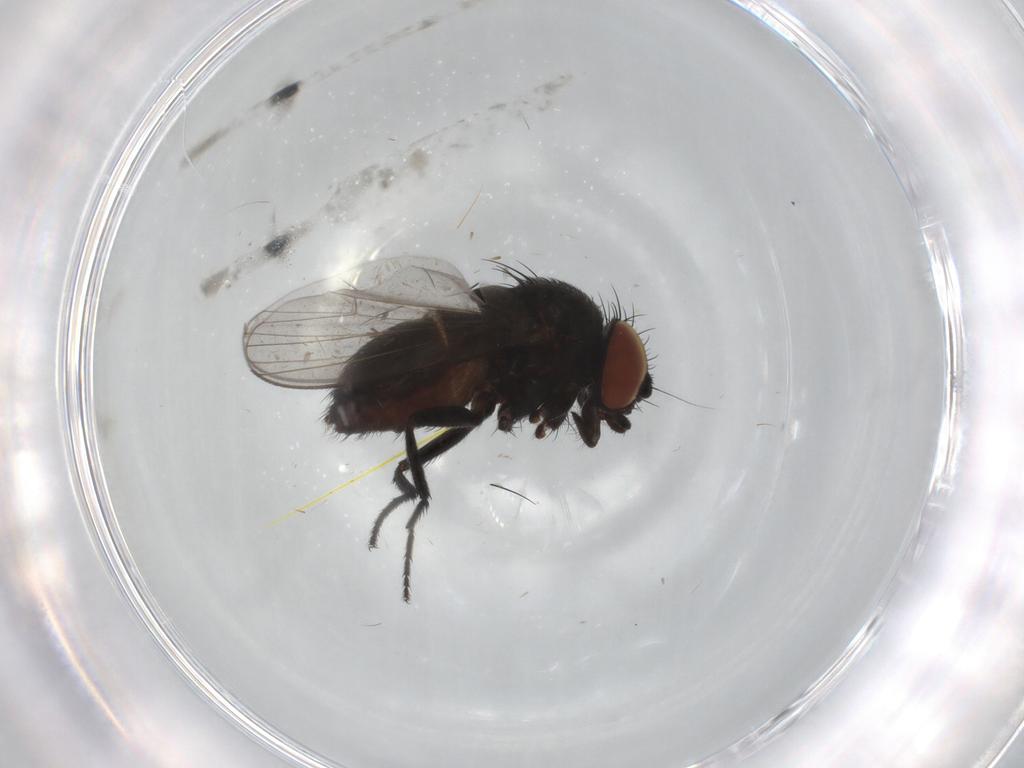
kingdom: Animalia
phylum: Arthropoda
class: Insecta
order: Diptera
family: Milichiidae
